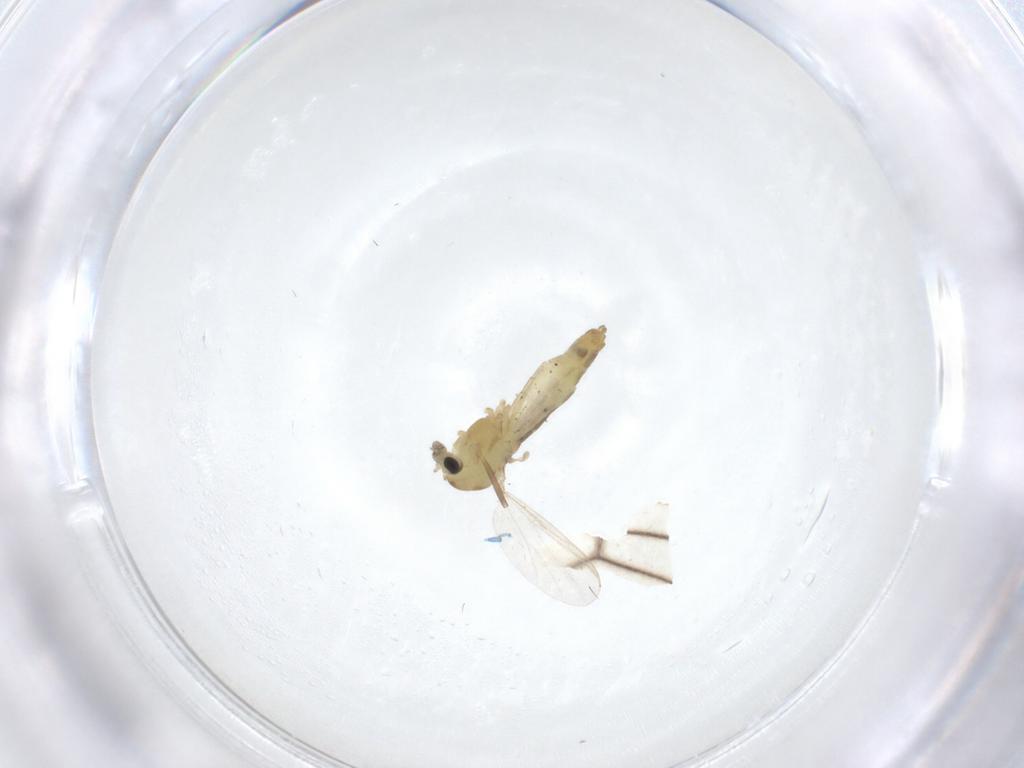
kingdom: Animalia
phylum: Arthropoda
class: Insecta
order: Diptera
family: Chironomidae
